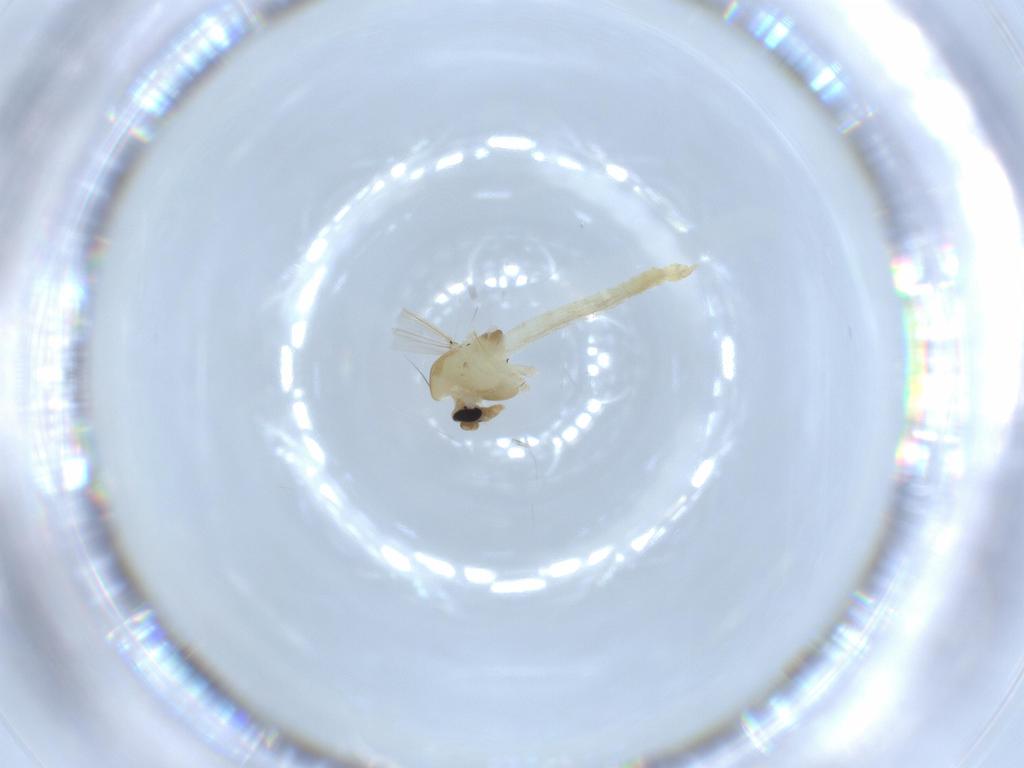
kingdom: Animalia
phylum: Arthropoda
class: Insecta
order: Diptera
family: Chironomidae
